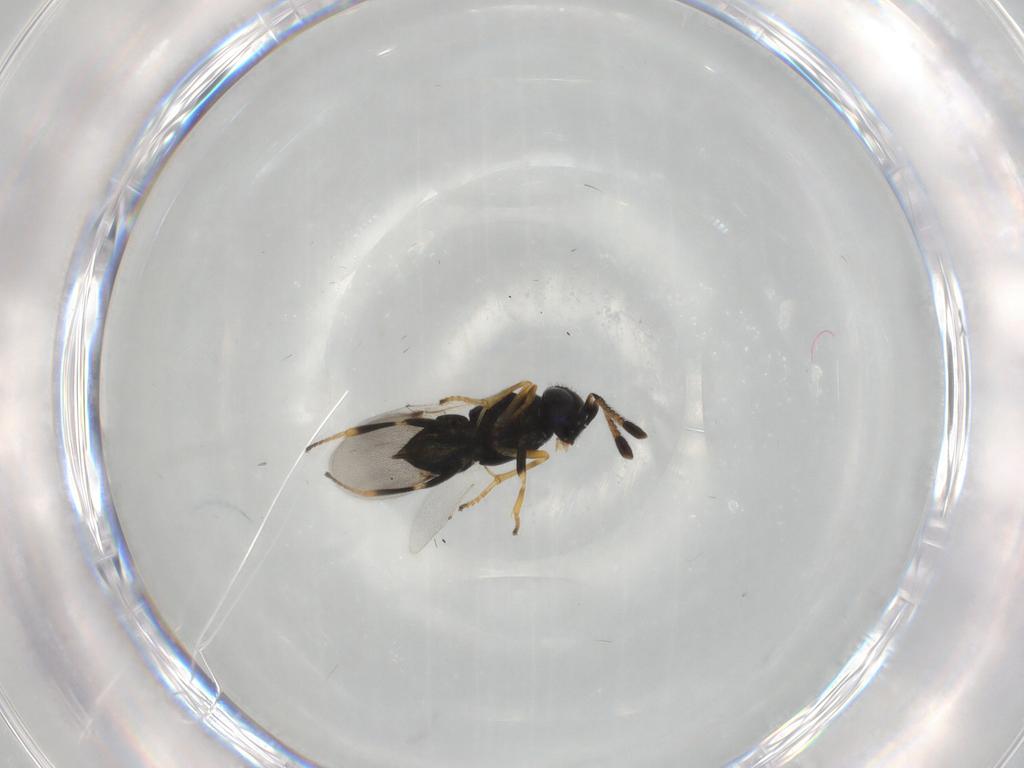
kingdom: Animalia
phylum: Arthropoda
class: Insecta
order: Hymenoptera
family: Encyrtidae
